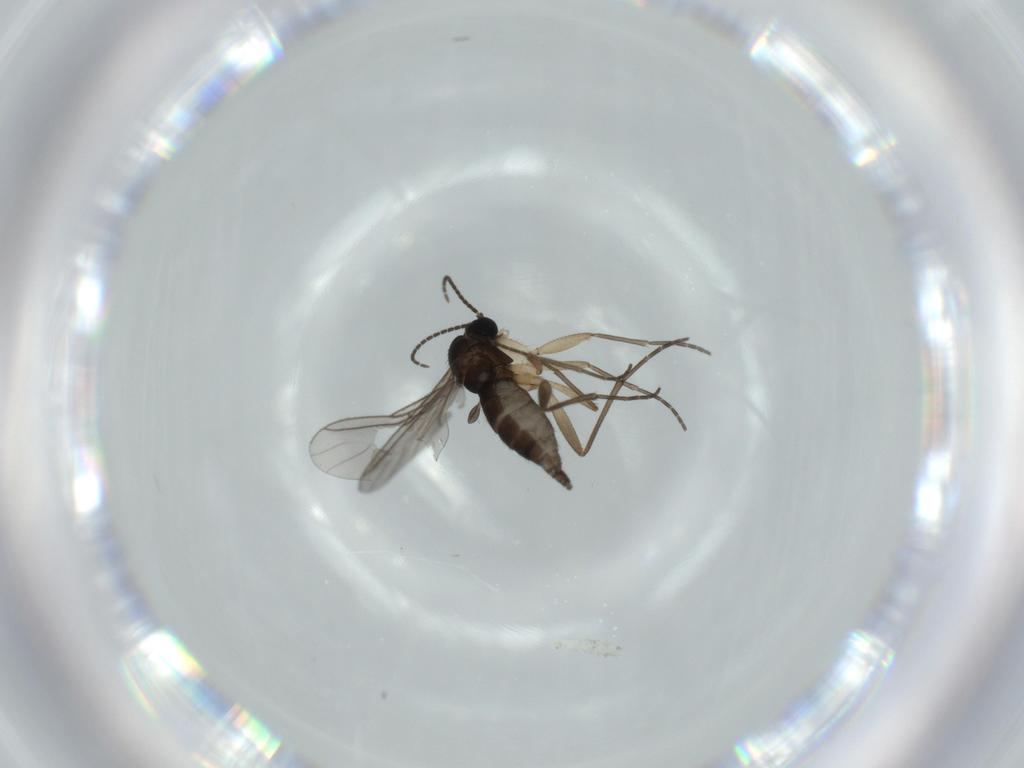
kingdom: Animalia
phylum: Arthropoda
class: Insecta
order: Diptera
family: Sciaridae
